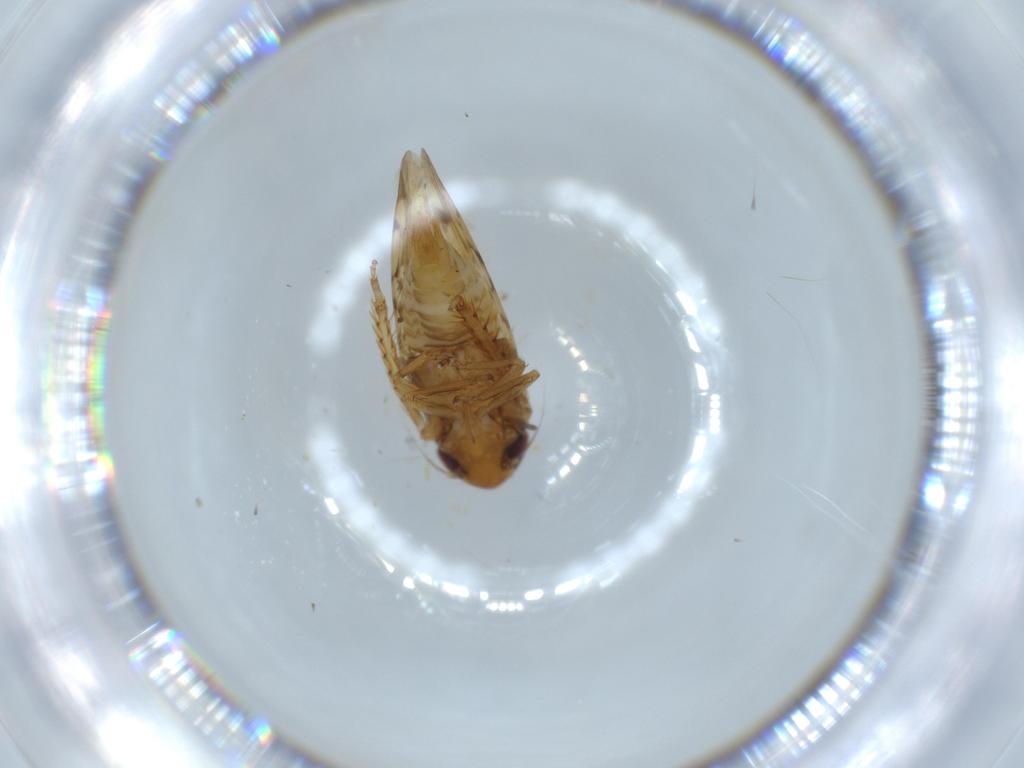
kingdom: Animalia
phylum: Arthropoda
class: Insecta
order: Hemiptera
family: Cicadellidae
